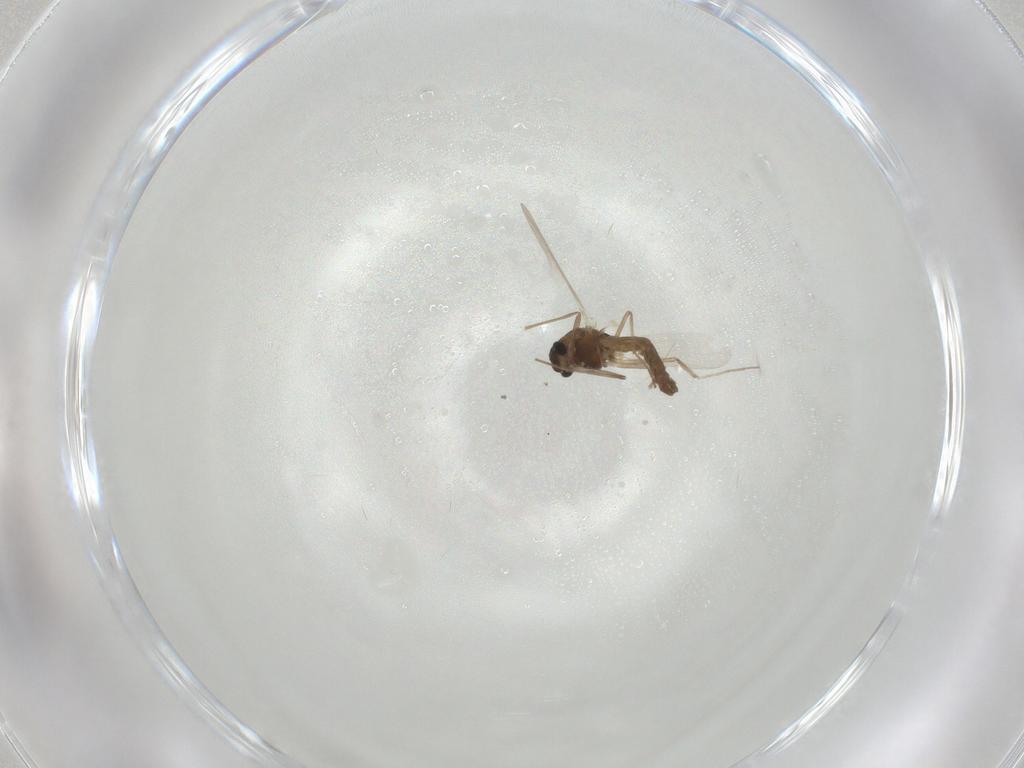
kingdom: Animalia
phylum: Arthropoda
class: Insecta
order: Diptera
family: Chironomidae
